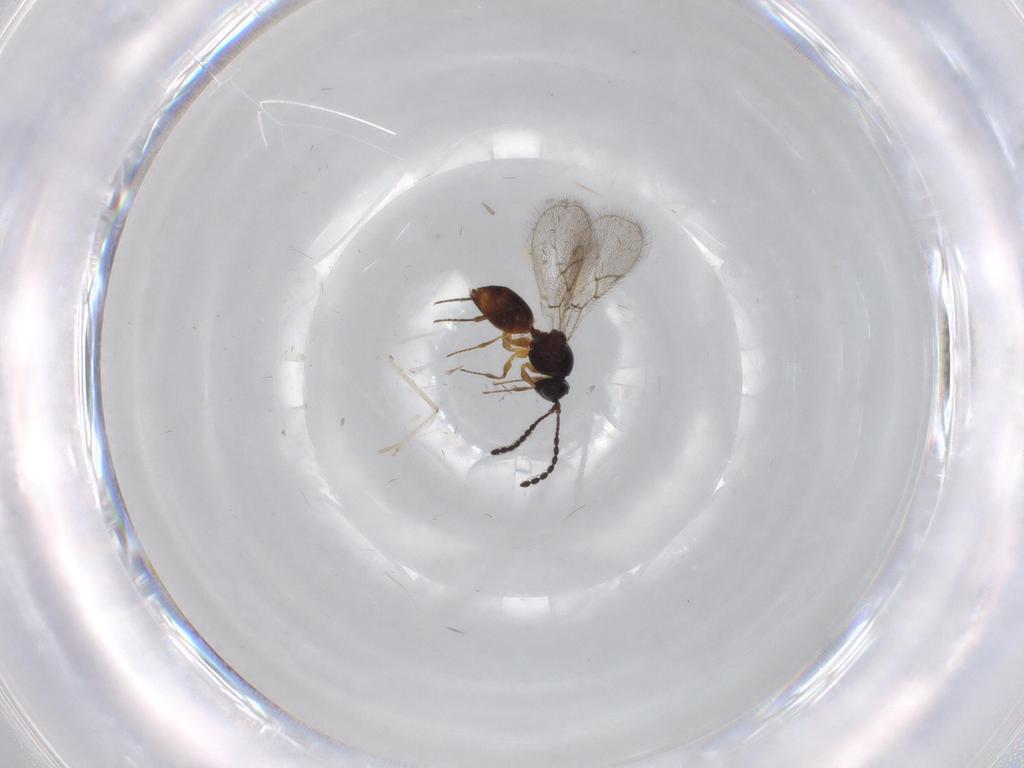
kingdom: Animalia
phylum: Arthropoda
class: Insecta
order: Hymenoptera
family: Figitidae
